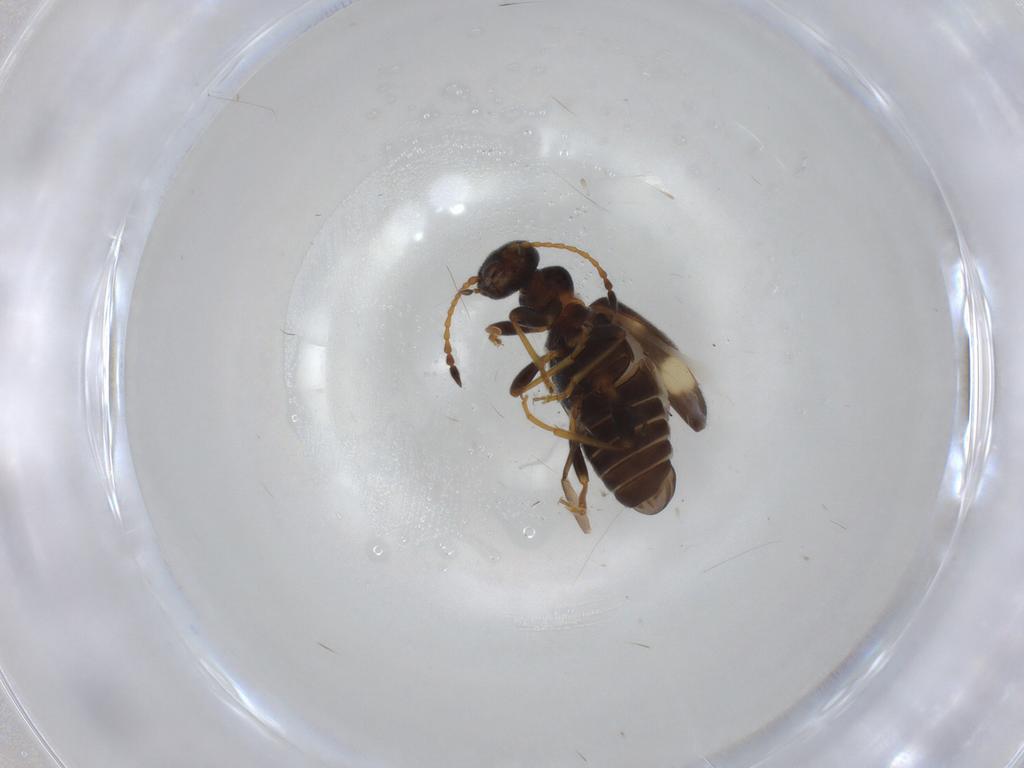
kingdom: Animalia
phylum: Arthropoda
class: Insecta
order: Coleoptera
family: Anthicidae
